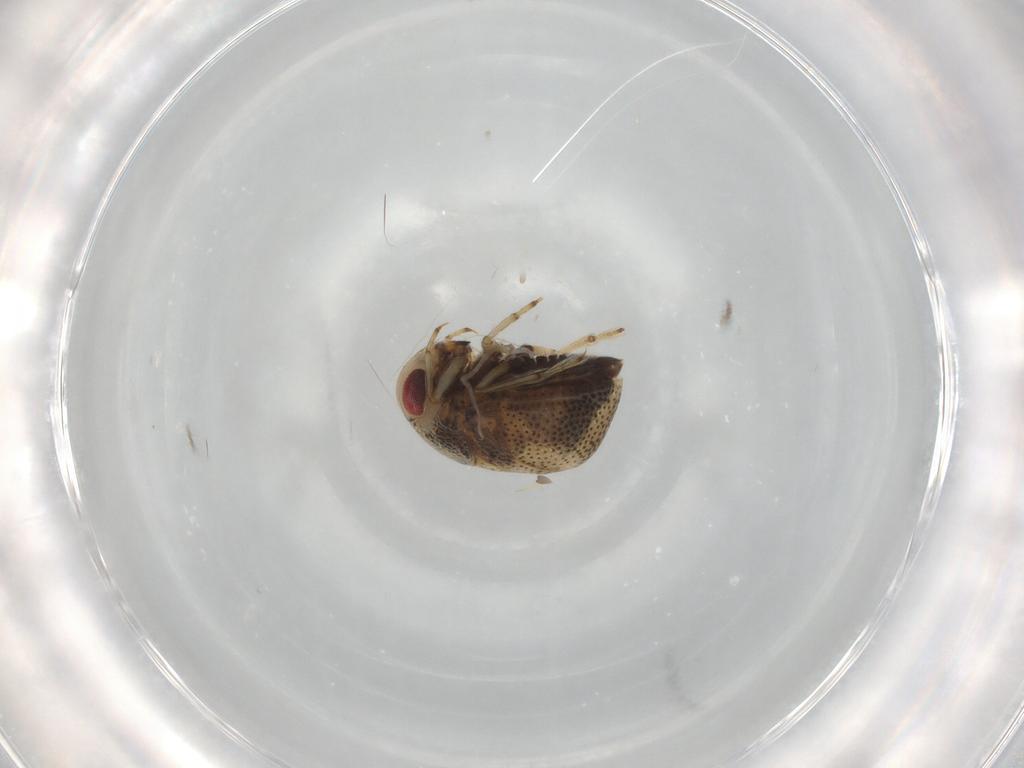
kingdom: Animalia
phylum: Arthropoda
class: Insecta
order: Hemiptera
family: Pleidae
